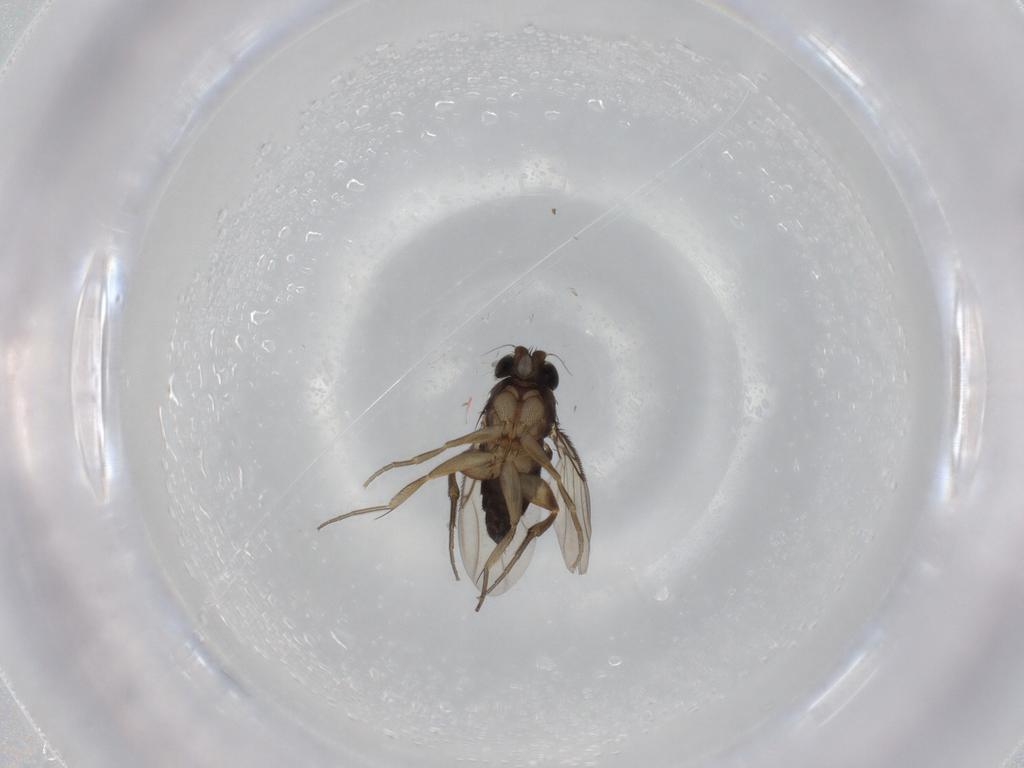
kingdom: Animalia
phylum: Arthropoda
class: Insecta
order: Diptera
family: Phoridae
